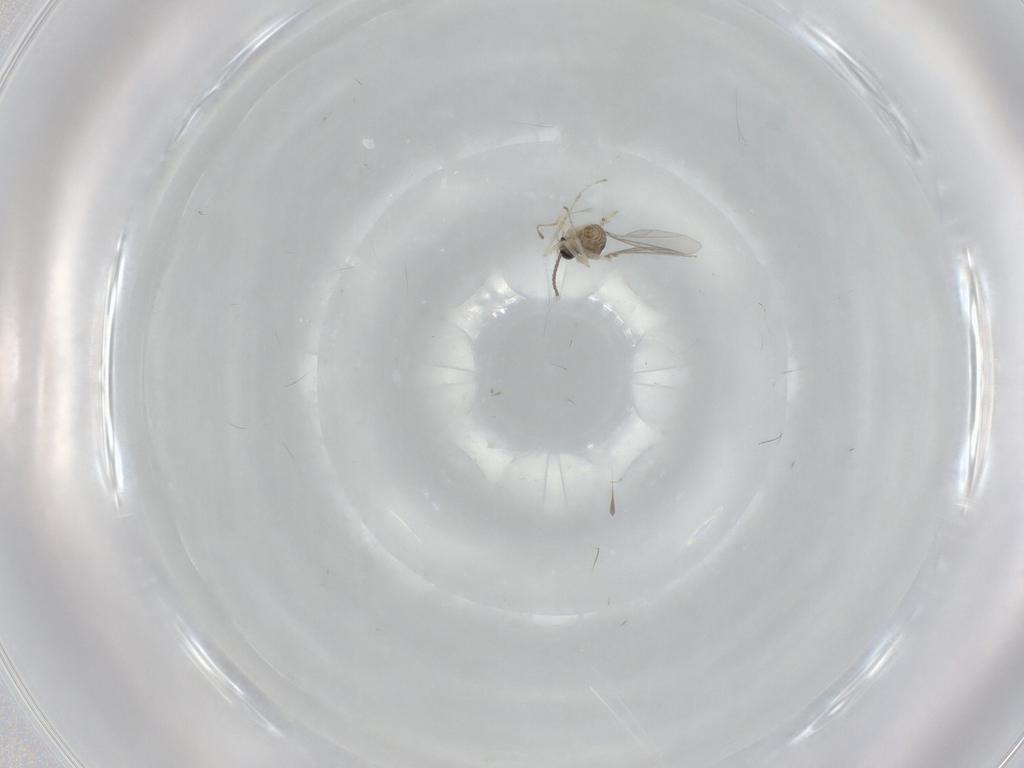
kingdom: Animalia
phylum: Arthropoda
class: Insecta
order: Diptera
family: Cecidomyiidae
